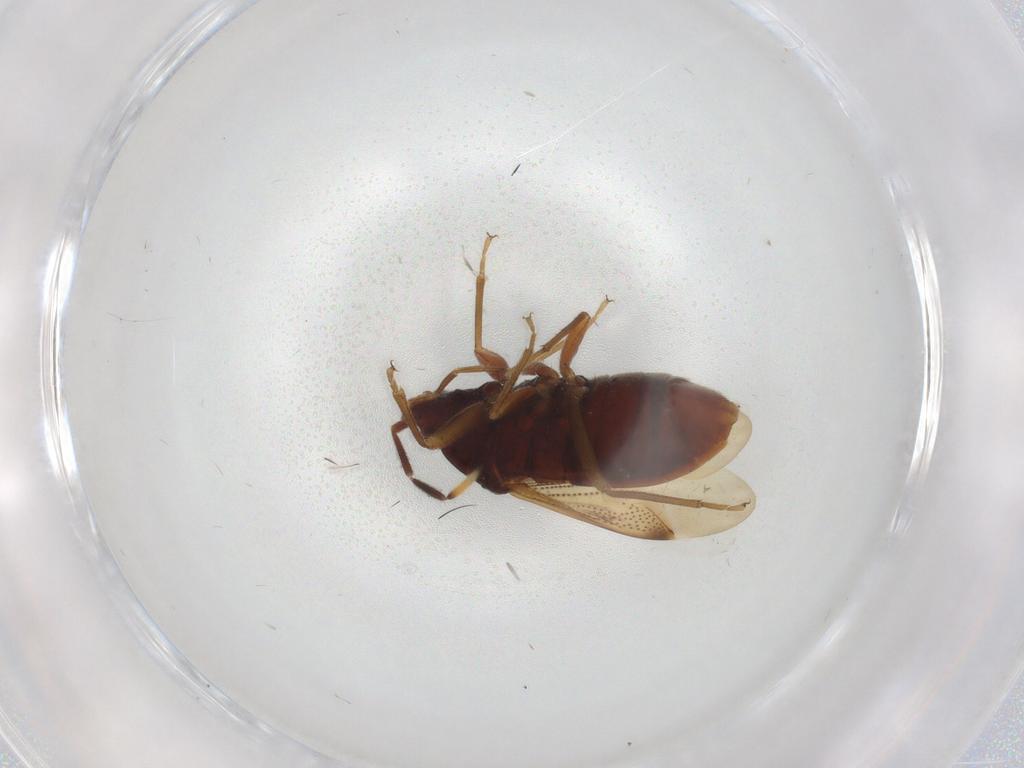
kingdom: Animalia
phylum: Arthropoda
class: Insecta
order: Hemiptera
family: Rhyparochromidae
